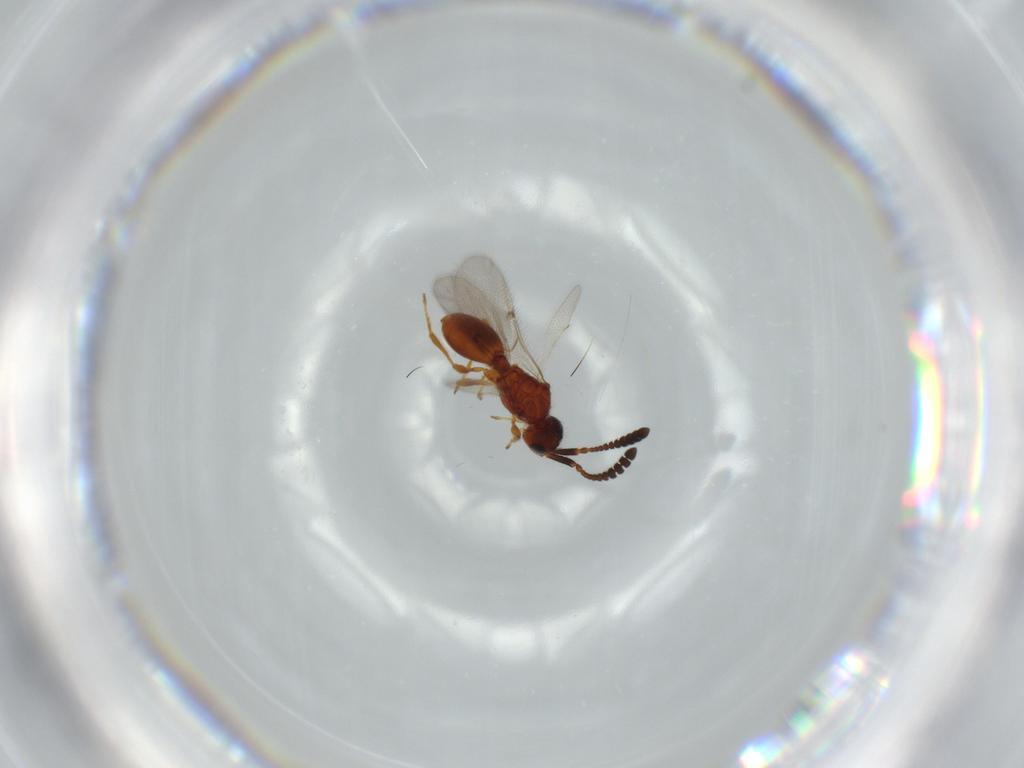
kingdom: Animalia
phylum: Arthropoda
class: Insecta
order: Hymenoptera
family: Diapriidae
